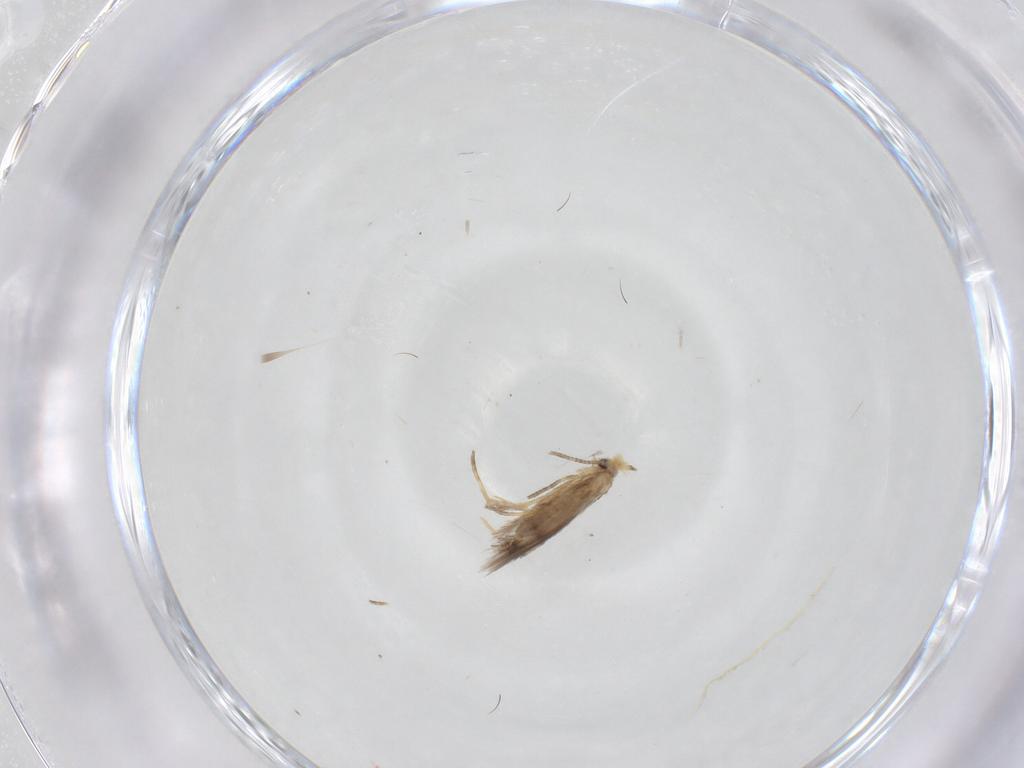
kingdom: Animalia
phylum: Arthropoda
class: Insecta
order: Lepidoptera
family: Nepticulidae
